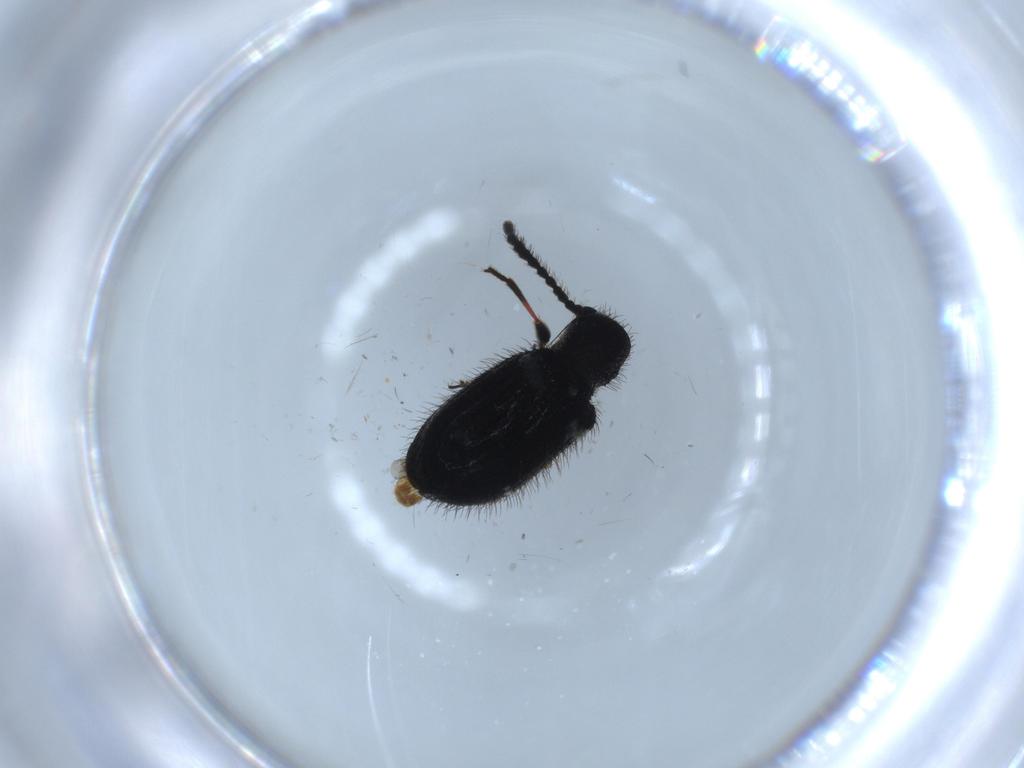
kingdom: Animalia
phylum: Arthropoda
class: Insecta
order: Coleoptera
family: Ptinidae
